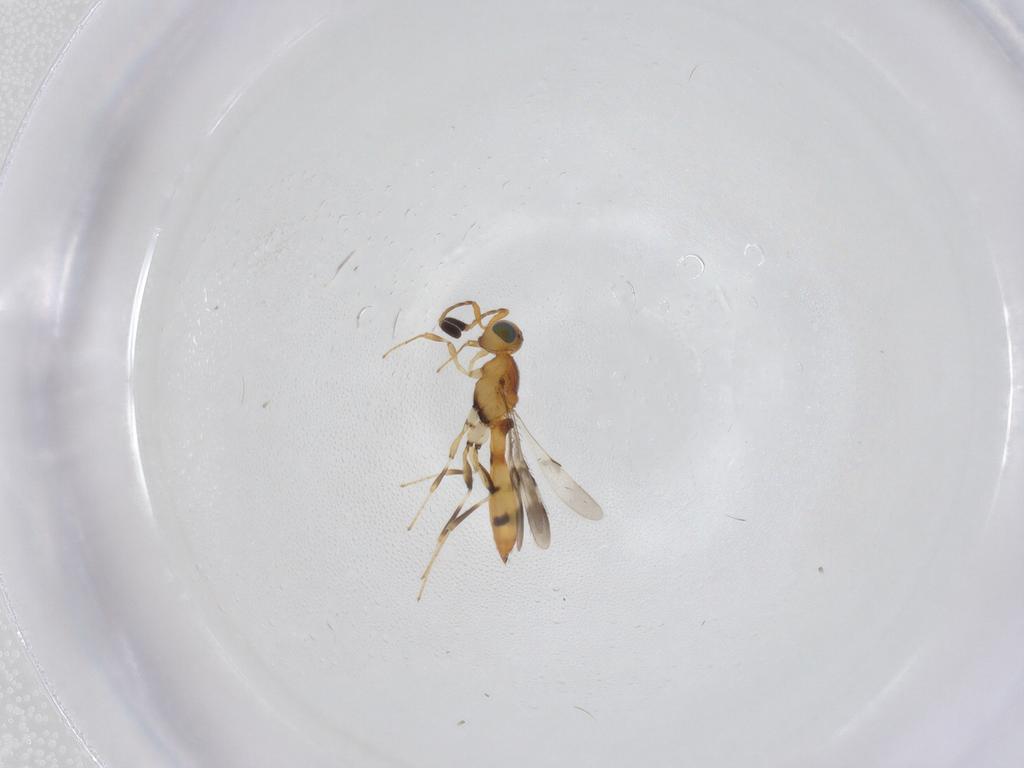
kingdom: Animalia
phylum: Arthropoda
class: Insecta
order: Hymenoptera
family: Scelionidae
